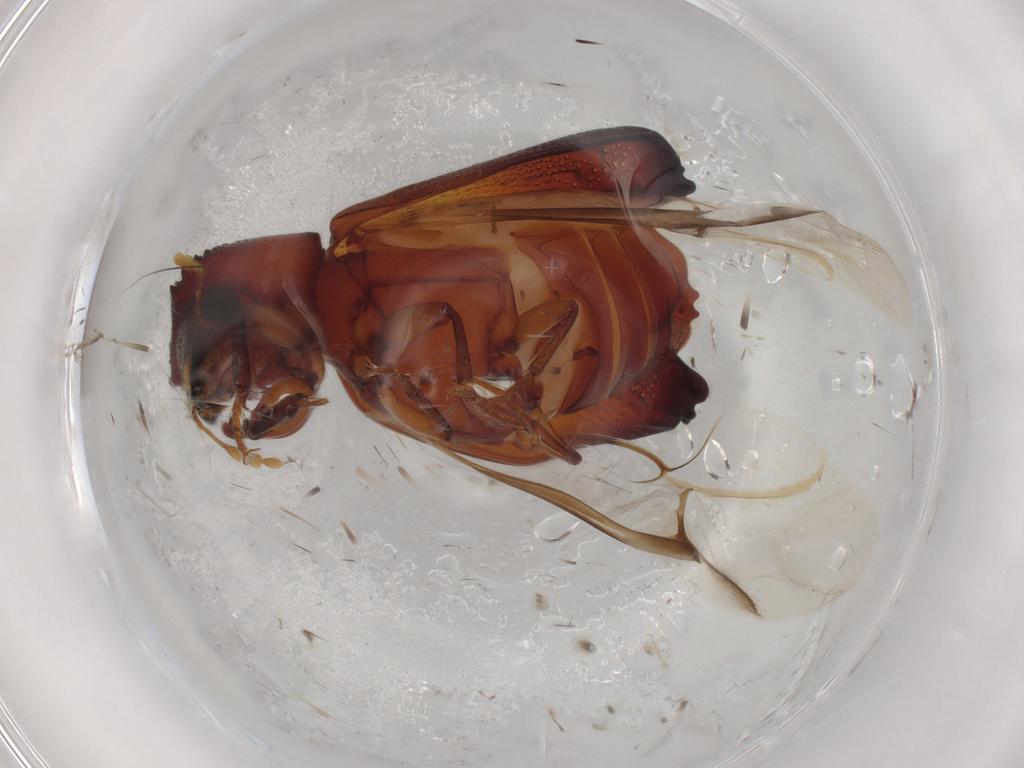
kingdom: Animalia
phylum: Arthropoda
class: Insecta
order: Coleoptera
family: Bostrichidae
